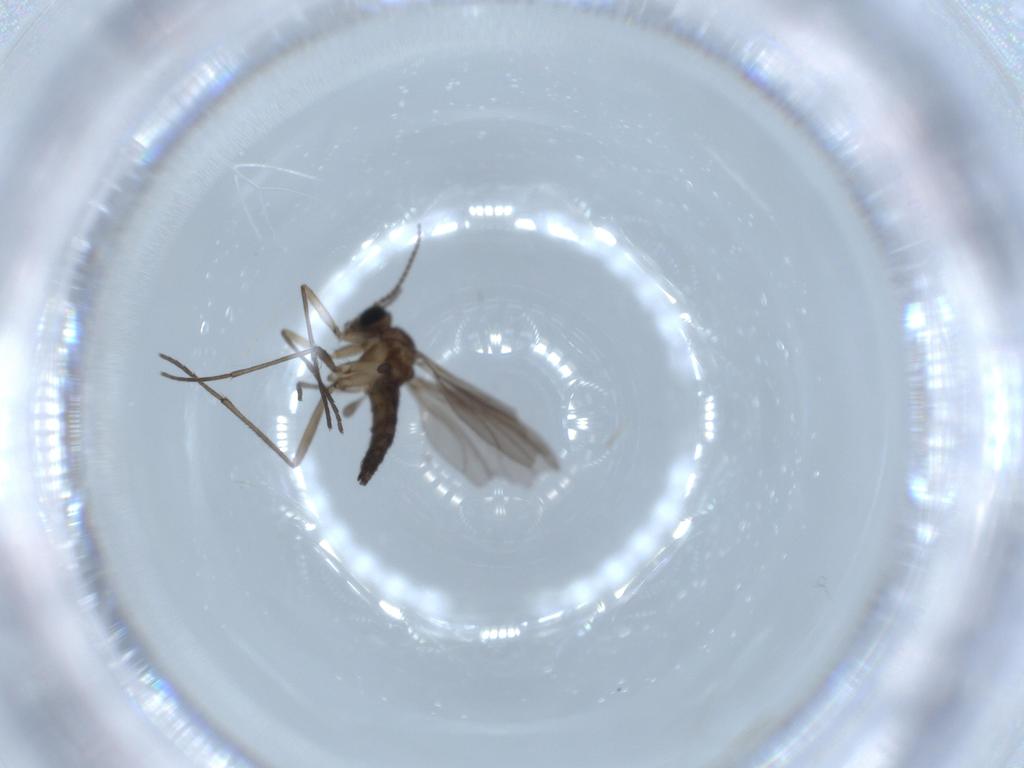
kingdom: Animalia
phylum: Arthropoda
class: Insecta
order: Diptera
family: Sciaridae
